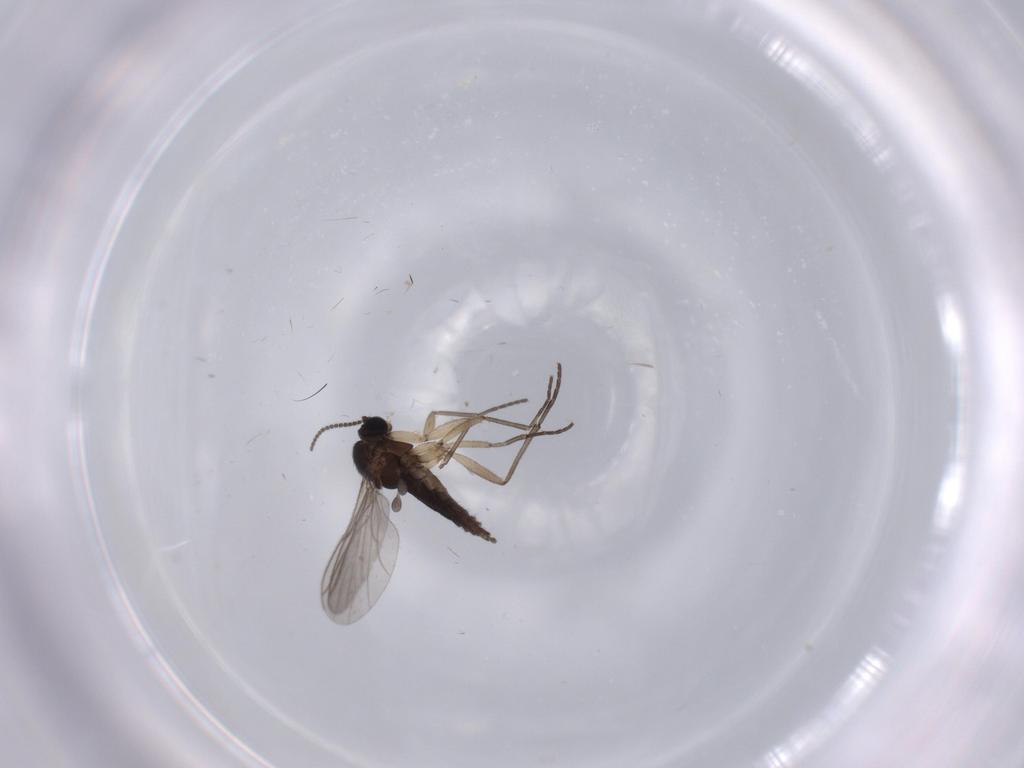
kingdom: Animalia
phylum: Arthropoda
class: Insecta
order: Diptera
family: Sciaridae
